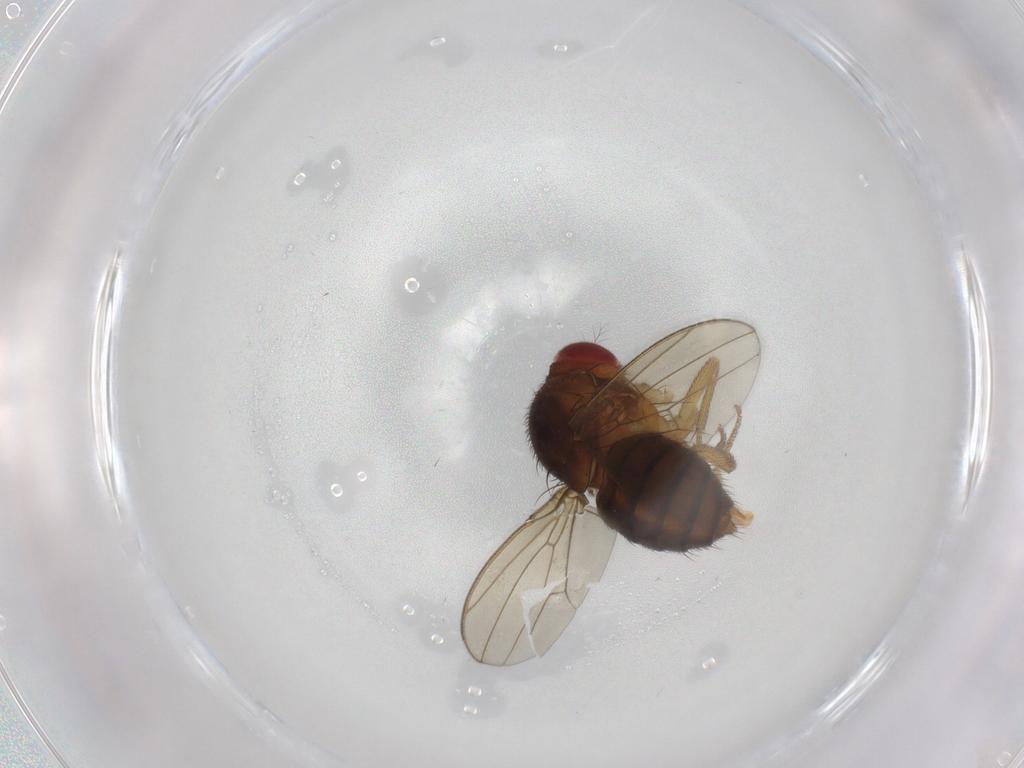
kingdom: Animalia
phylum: Arthropoda
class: Insecta
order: Diptera
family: Drosophilidae
